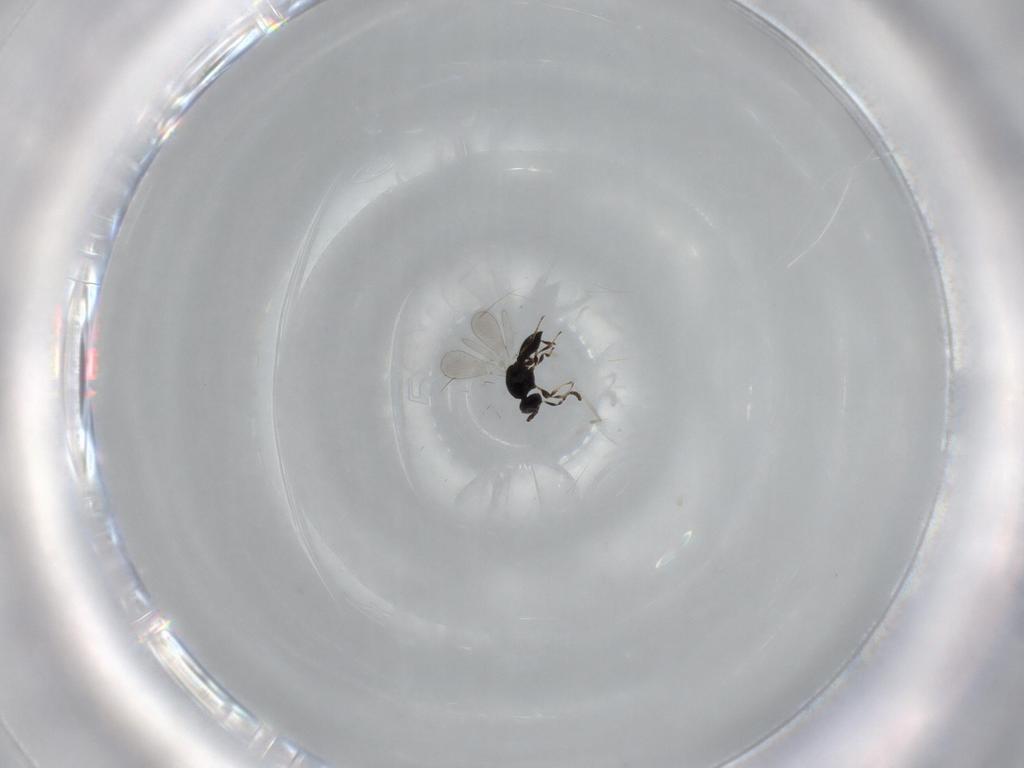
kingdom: Animalia
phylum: Arthropoda
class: Insecta
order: Hymenoptera
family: Platygastridae
